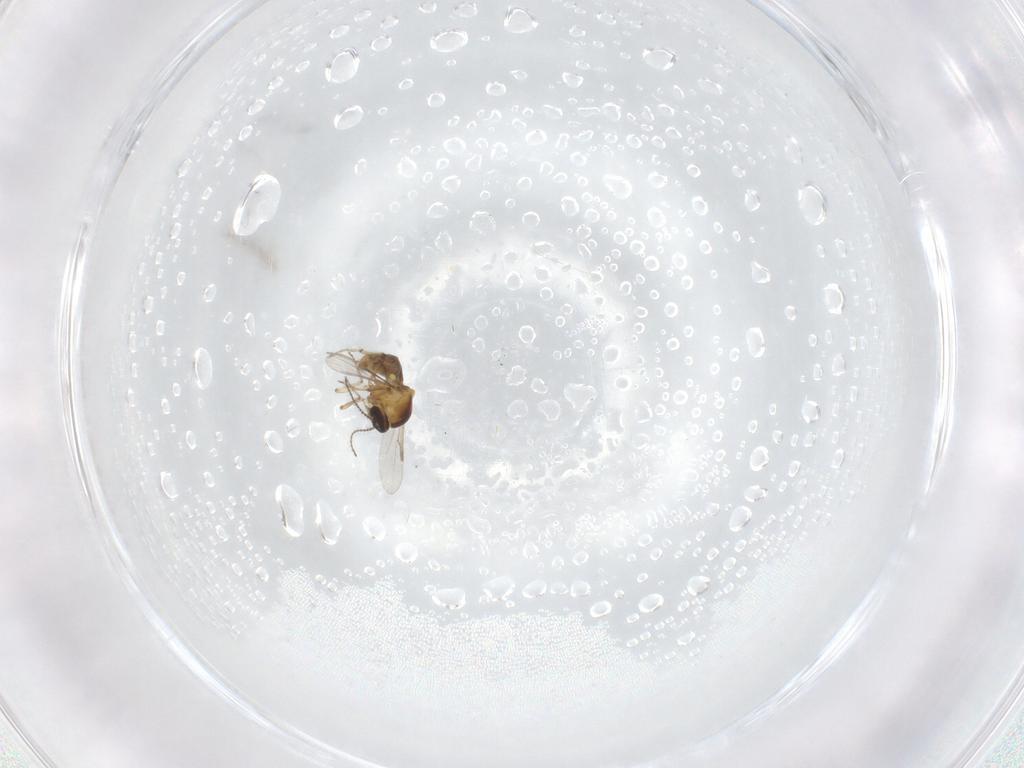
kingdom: Animalia
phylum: Arthropoda
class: Insecta
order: Diptera
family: Ceratopogonidae
